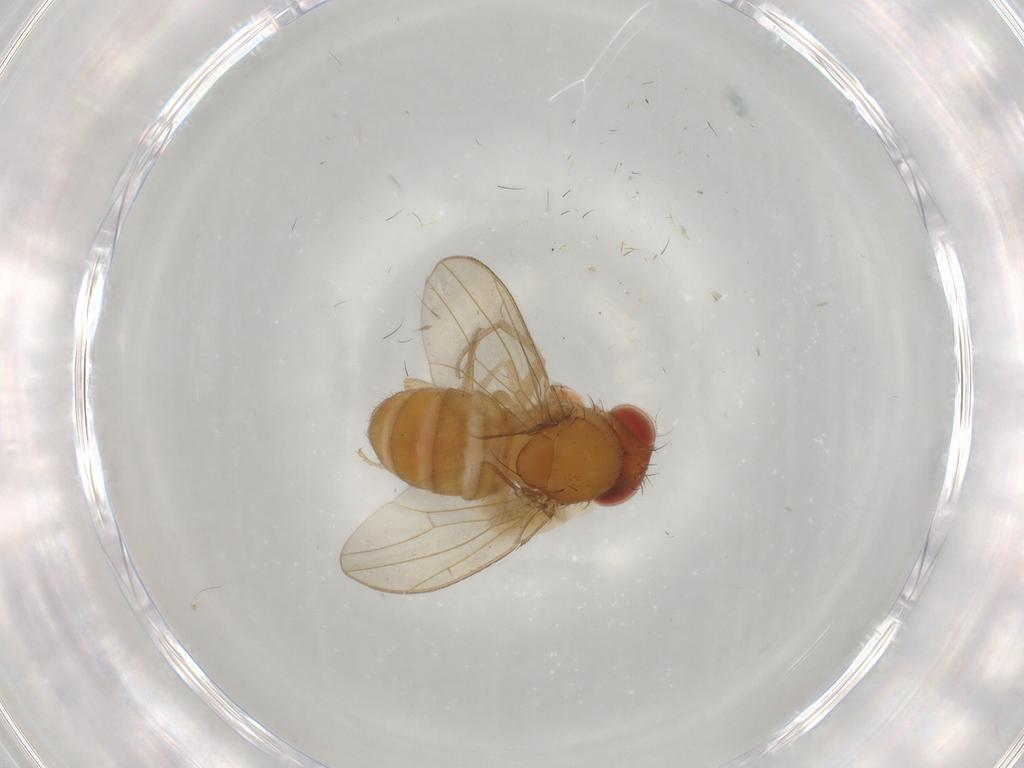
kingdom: Animalia
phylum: Arthropoda
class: Insecta
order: Diptera
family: Drosophilidae
